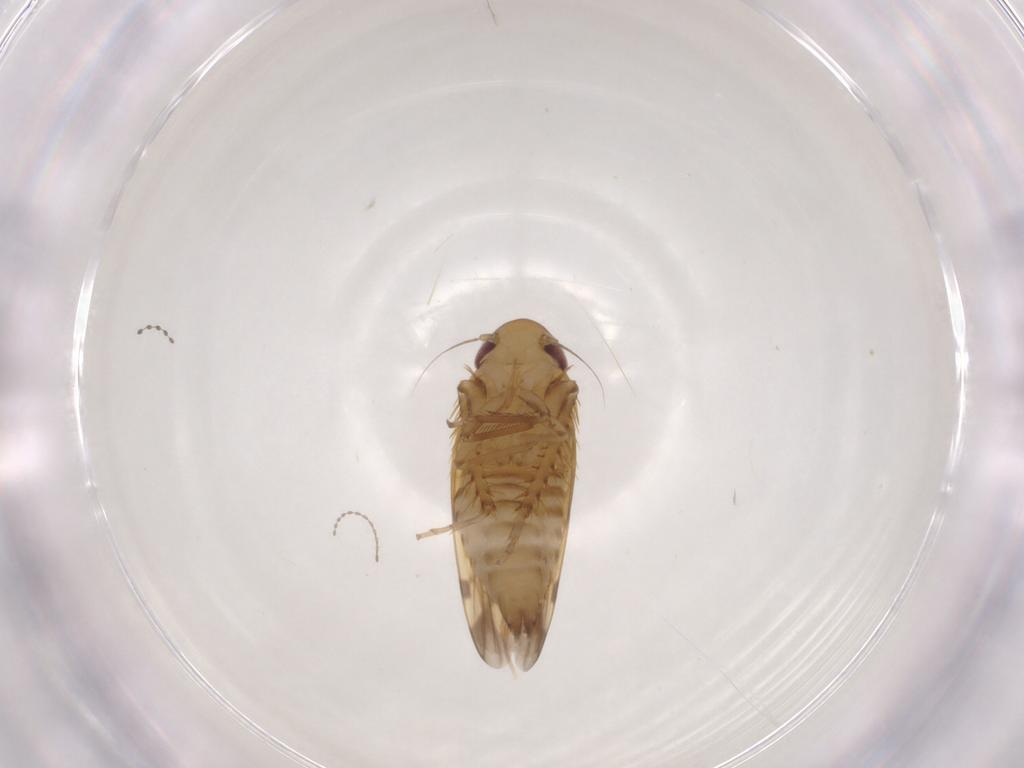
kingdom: Animalia
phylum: Arthropoda
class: Insecta
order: Hemiptera
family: Cicadellidae
